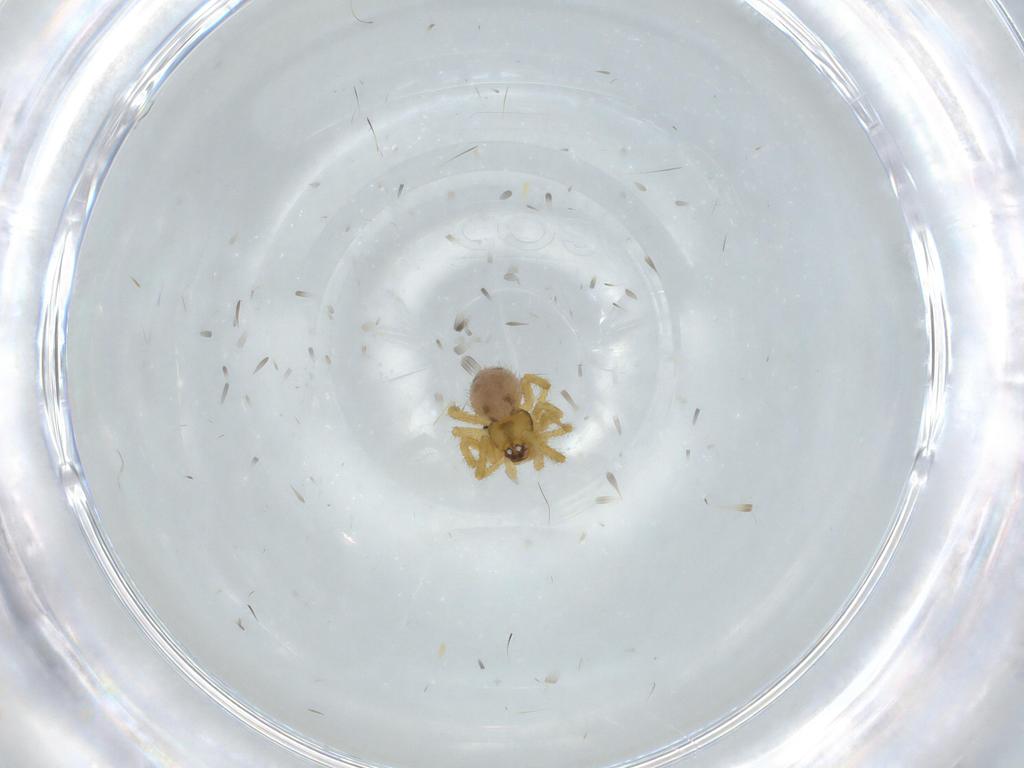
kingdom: Animalia
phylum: Arthropoda
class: Arachnida
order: Araneae
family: Theridiidae
